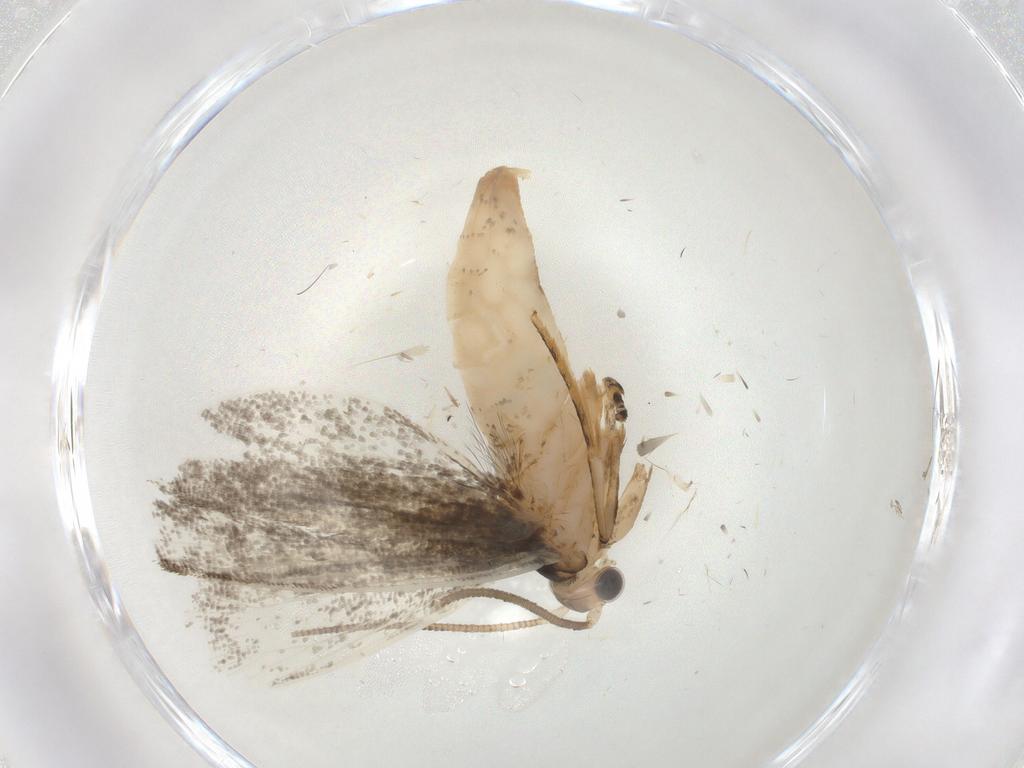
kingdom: Animalia
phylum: Arthropoda
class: Insecta
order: Lepidoptera
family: Tineidae
